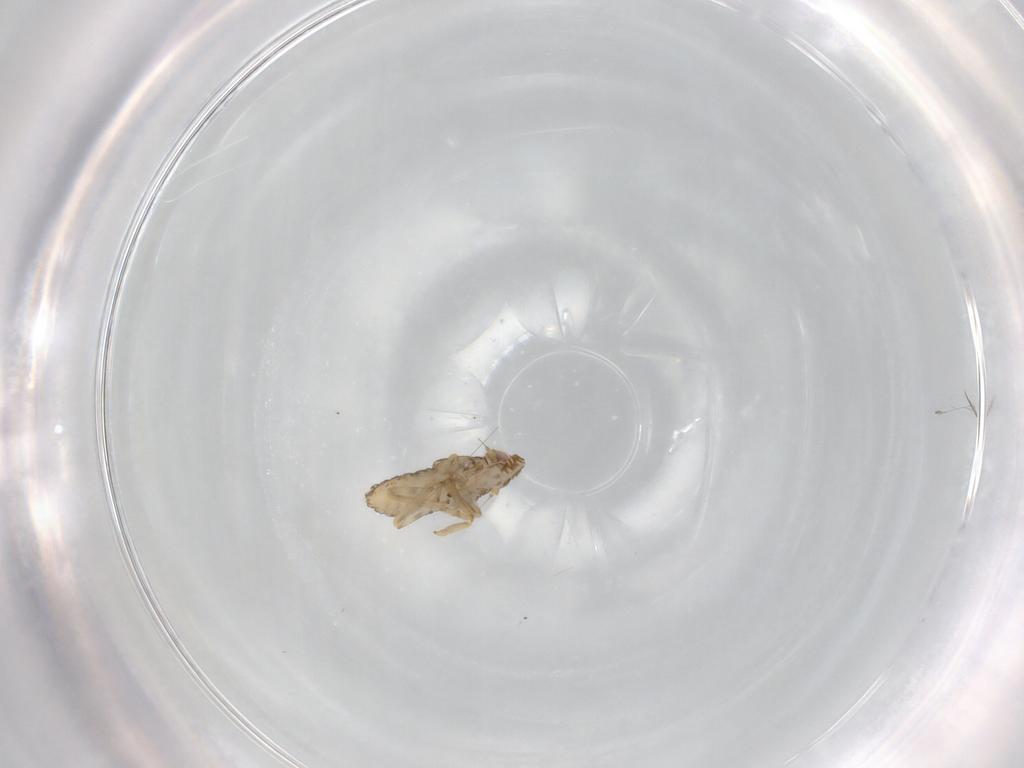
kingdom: Animalia
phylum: Arthropoda
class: Insecta
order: Hemiptera
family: Delphacidae
